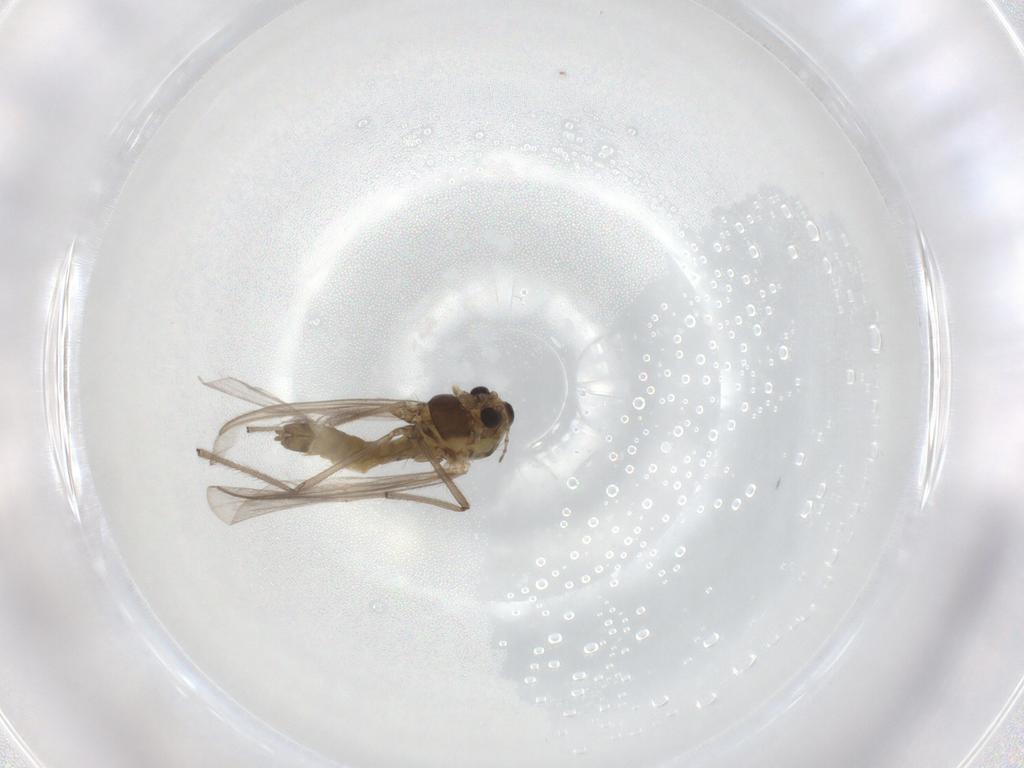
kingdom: Animalia
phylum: Arthropoda
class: Insecta
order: Diptera
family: Chironomidae
